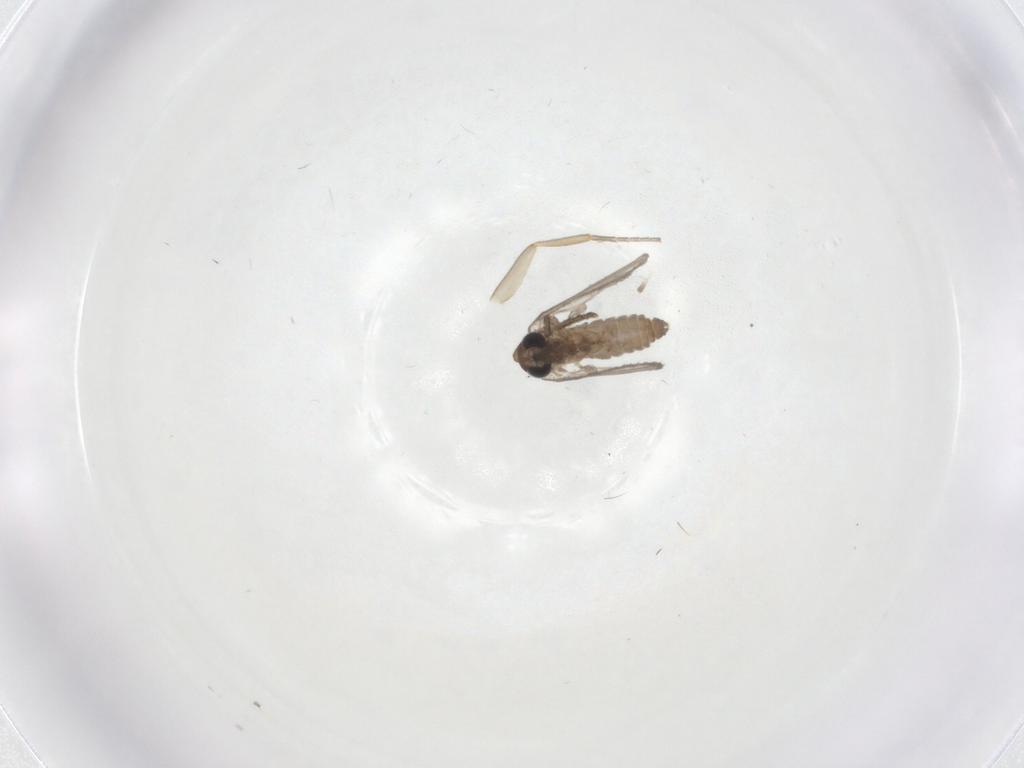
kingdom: Animalia
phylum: Arthropoda
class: Insecta
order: Diptera
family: Psychodidae
